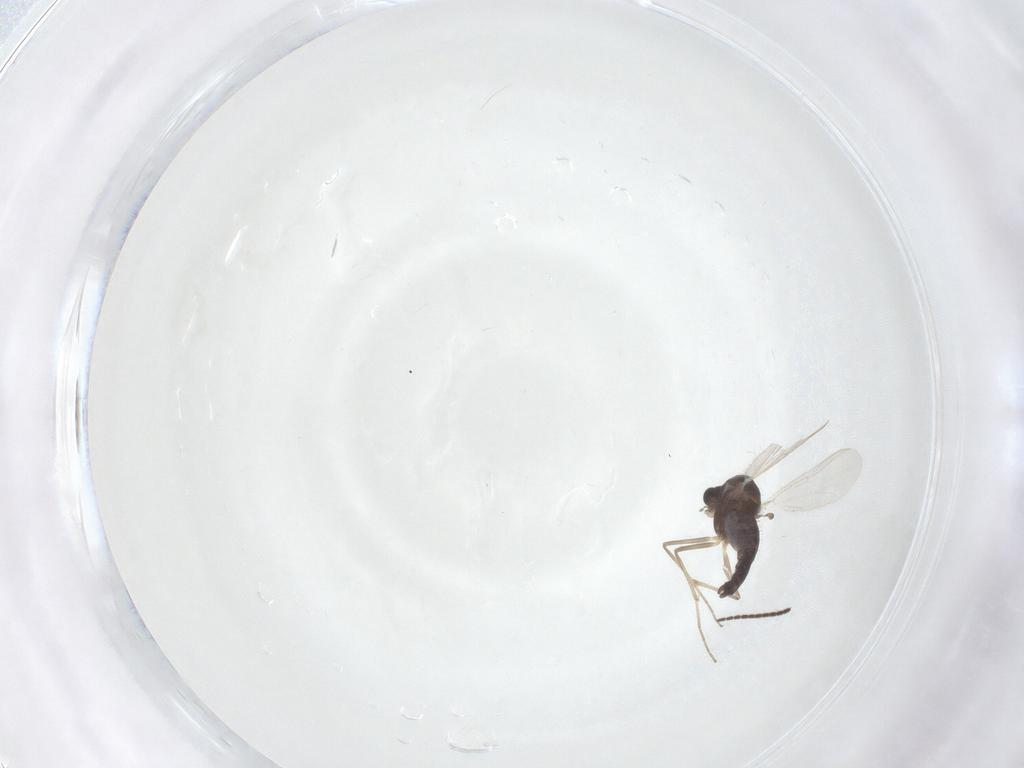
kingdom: Animalia
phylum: Arthropoda
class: Insecta
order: Diptera
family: Chironomidae
